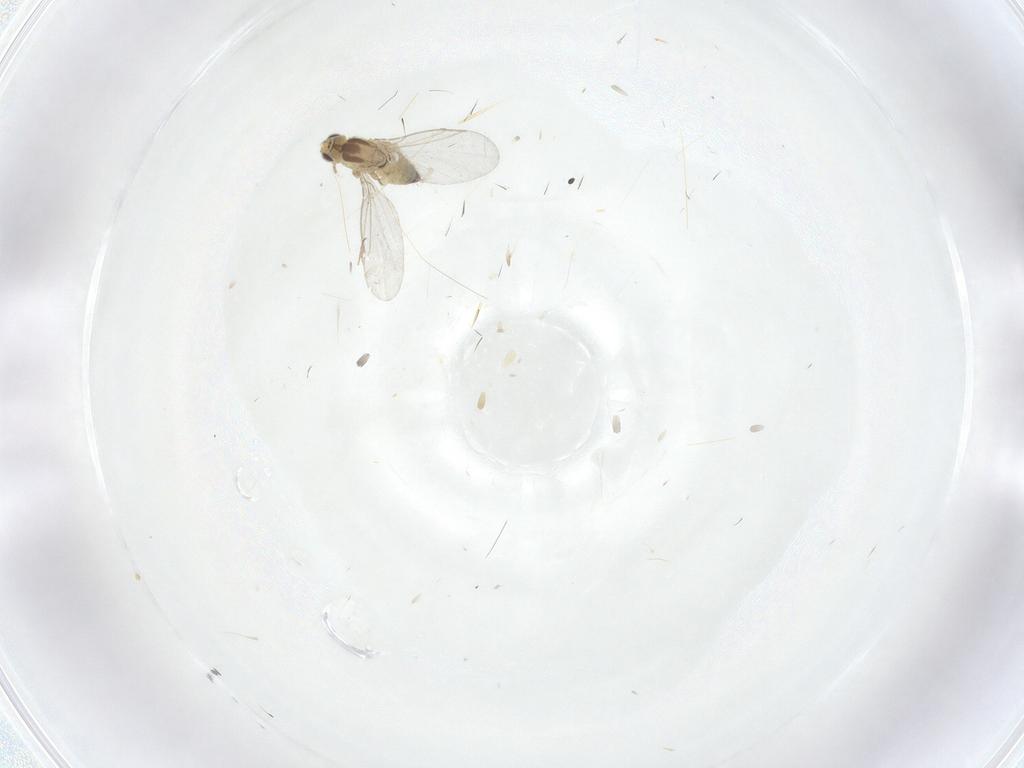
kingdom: Animalia
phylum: Arthropoda
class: Insecta
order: Diptera
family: Agromyzidae
